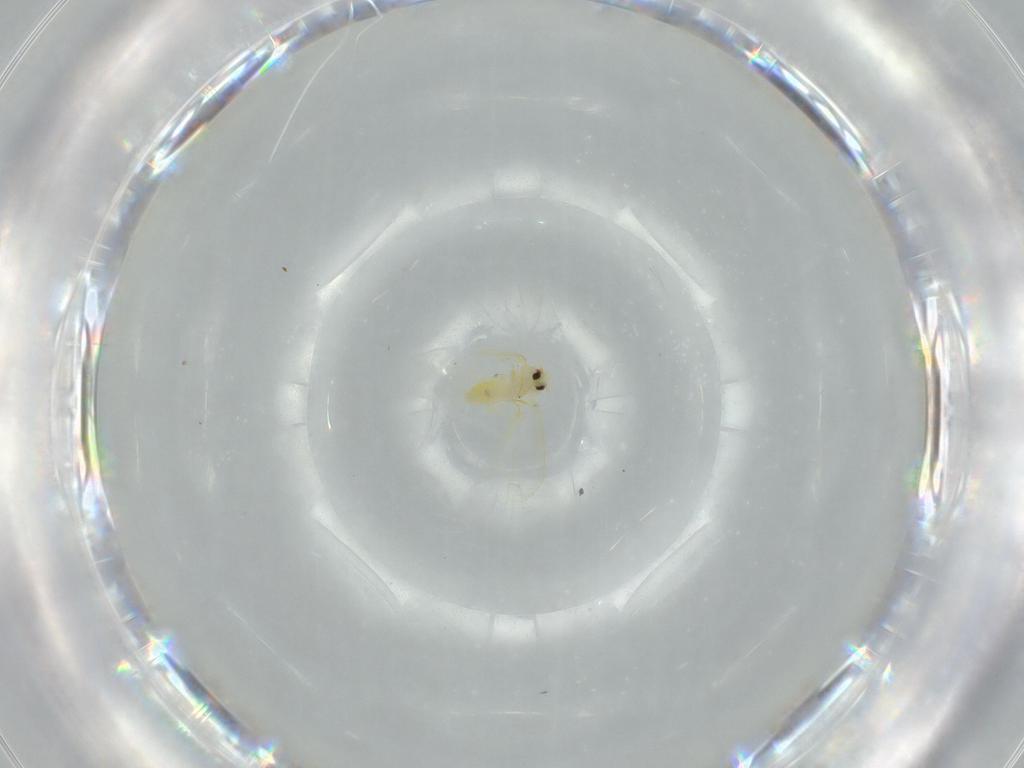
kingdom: Animalia
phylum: Arthropoda
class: Insecta
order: Hemiptera
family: Cicadellidae
